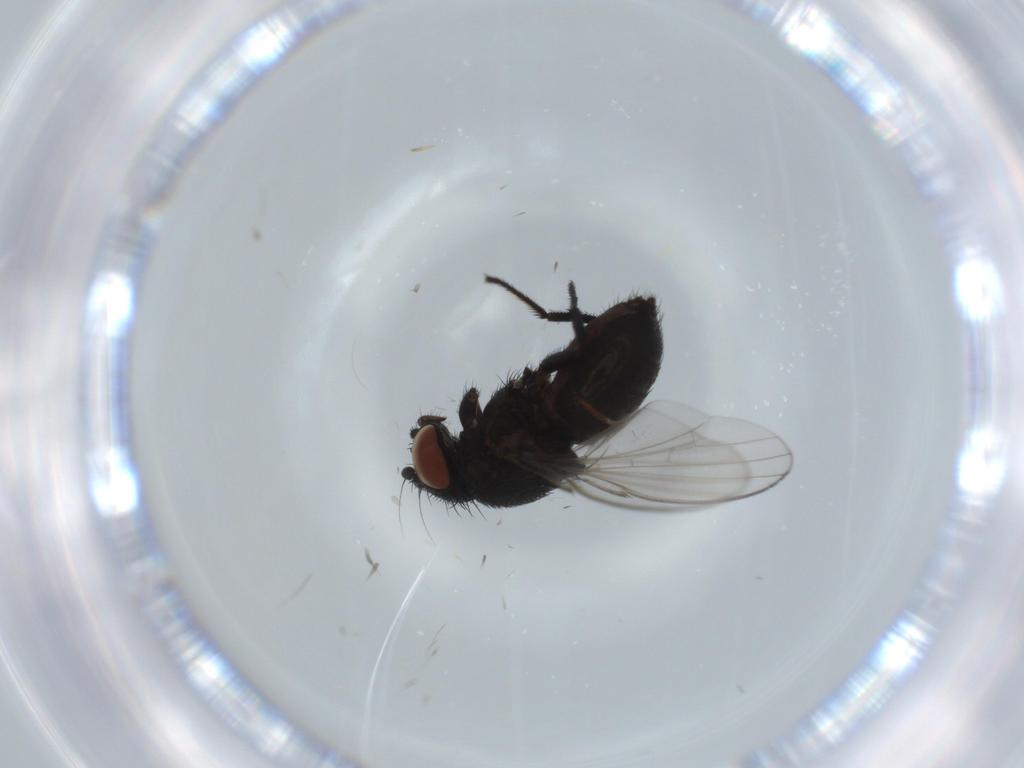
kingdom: Animalia
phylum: Arthropoda
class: Insecta
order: Diptera
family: Milichiidae
